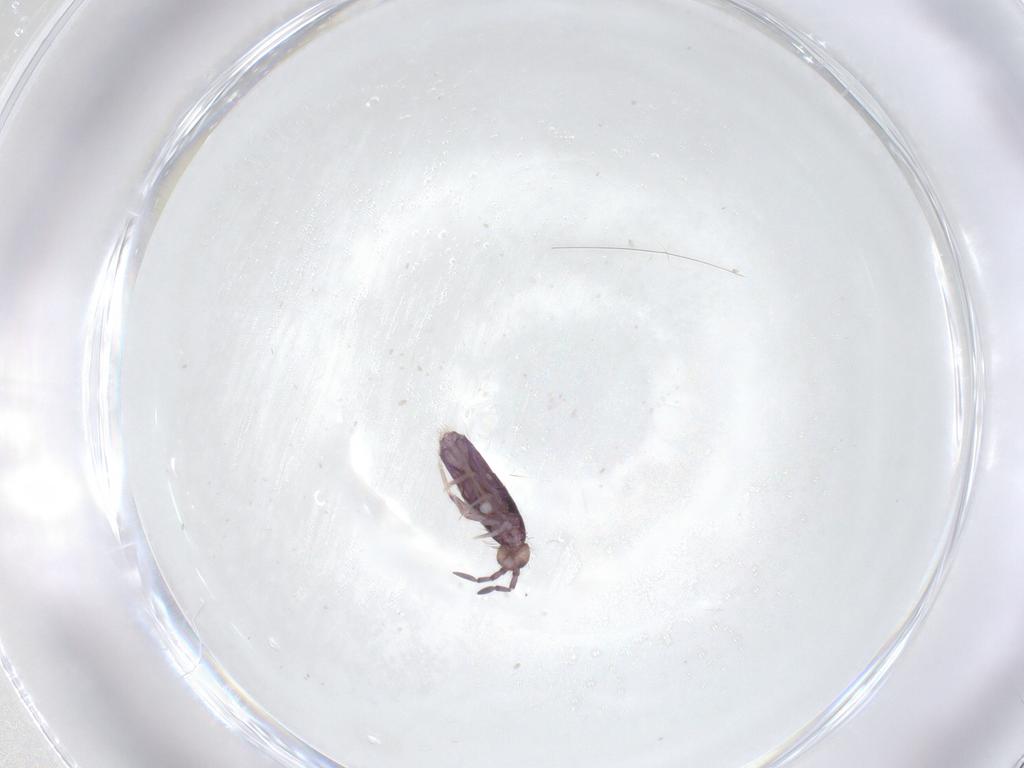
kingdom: Animalia
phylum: Arthropoda
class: Collembola
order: Entomobryomorpha
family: Entomobryidae
